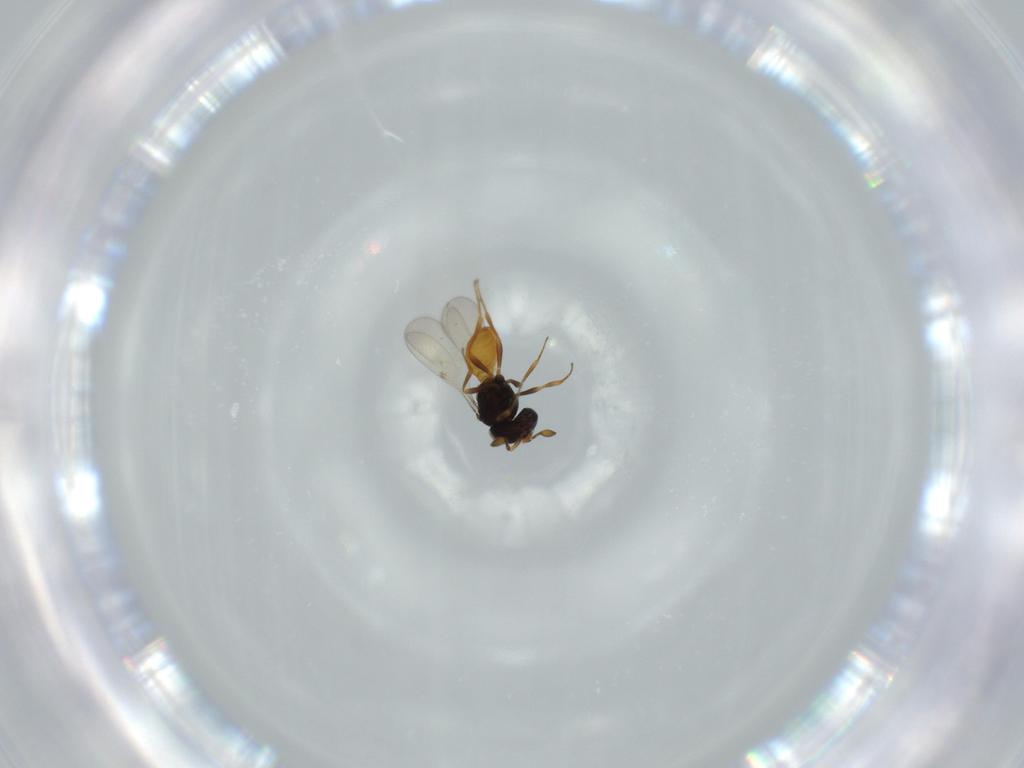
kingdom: Animalia
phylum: Arthropoda
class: Insecta
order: Hymenoptera
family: Scelionidae
